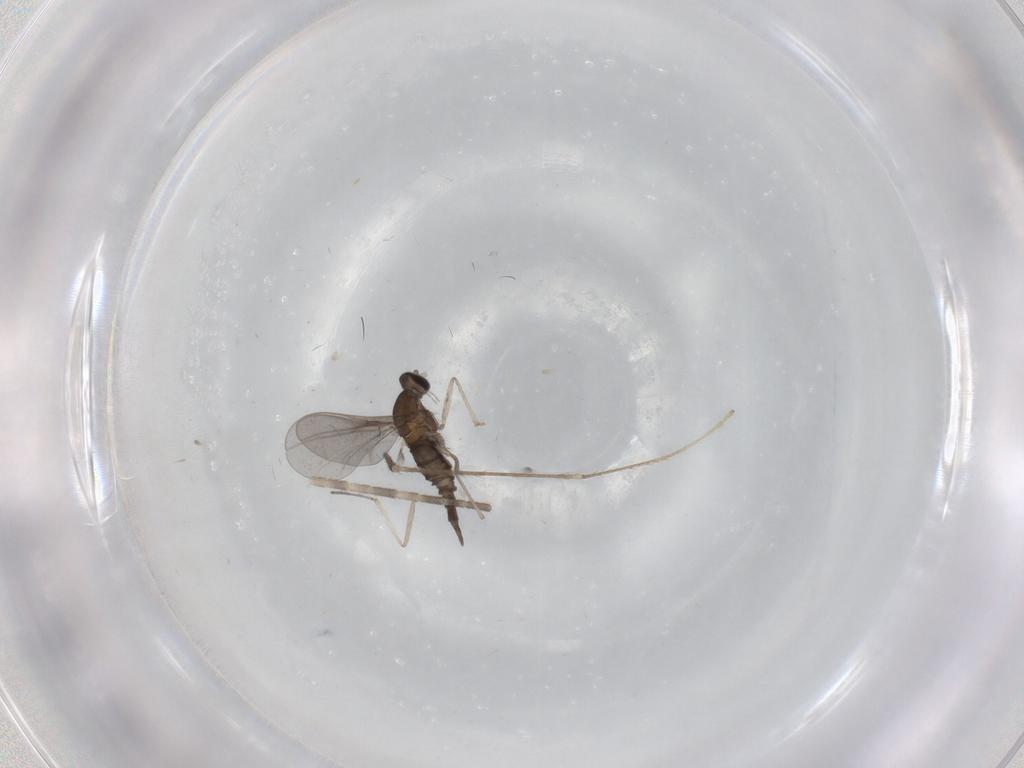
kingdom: Animalia
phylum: Arthropoda
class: Insecta
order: Diptera
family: Limoniidae
